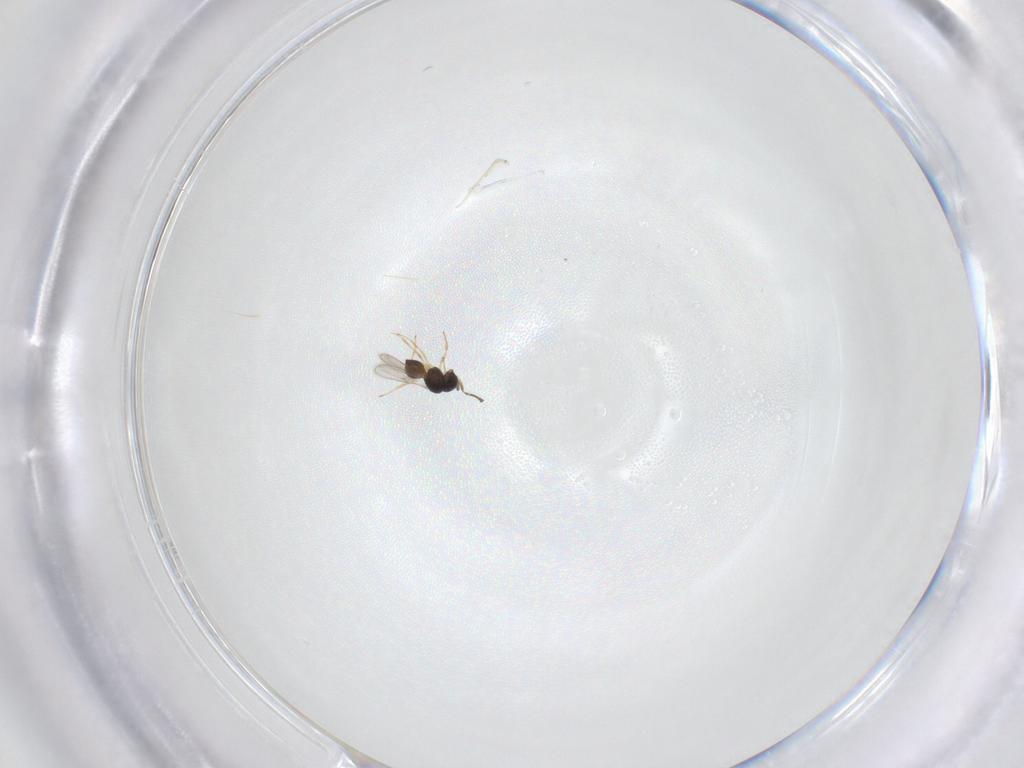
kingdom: Animalia
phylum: Arthropoda
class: Insecta
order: Hymenoptera
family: Scelionidae
